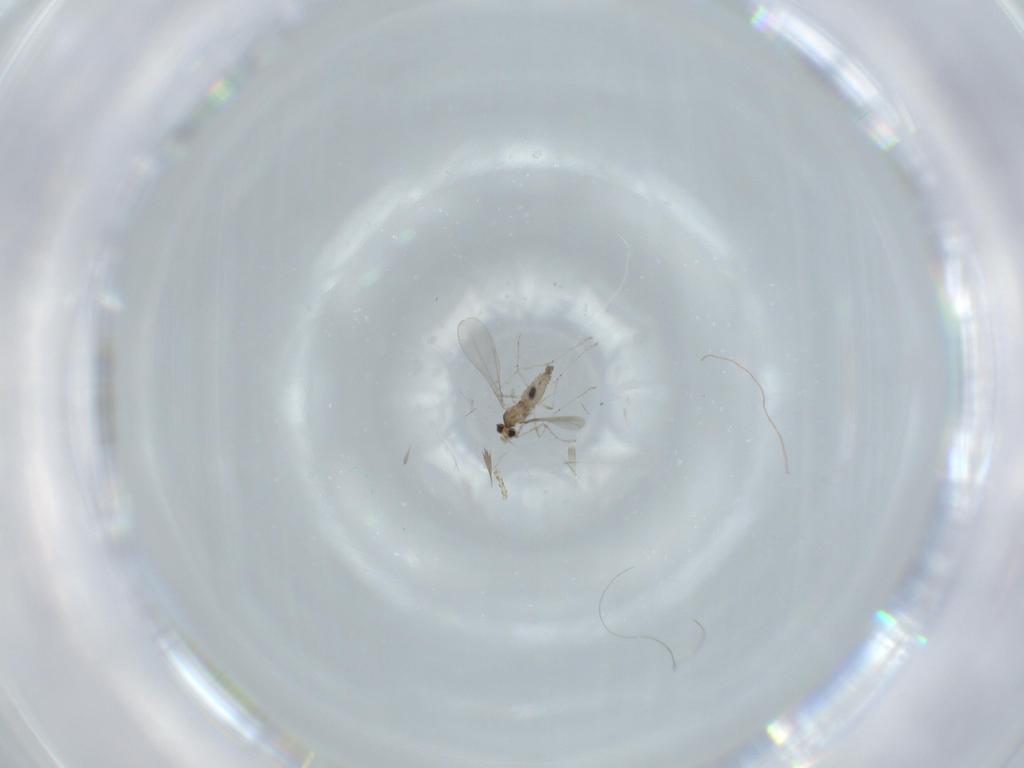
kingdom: Animalia
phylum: Arthropoda
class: Insecta
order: Diptera
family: Cecidomyiidae
